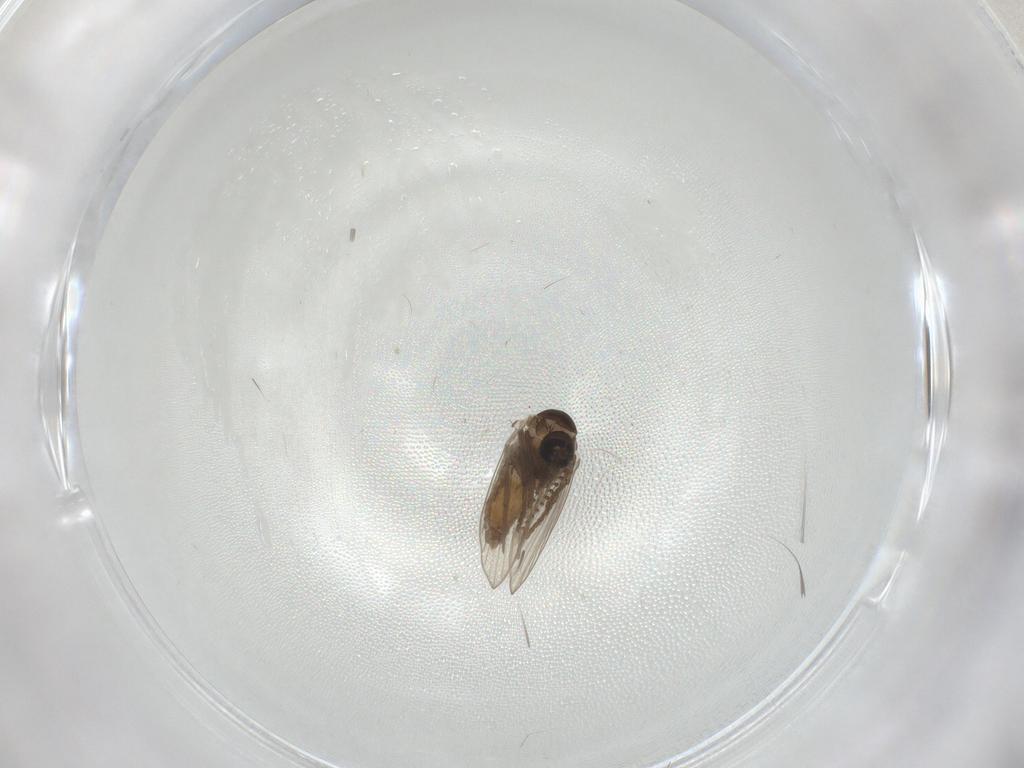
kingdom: Animalia
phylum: Arthropoda
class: Insecta
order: Diptera
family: Psychodidae
